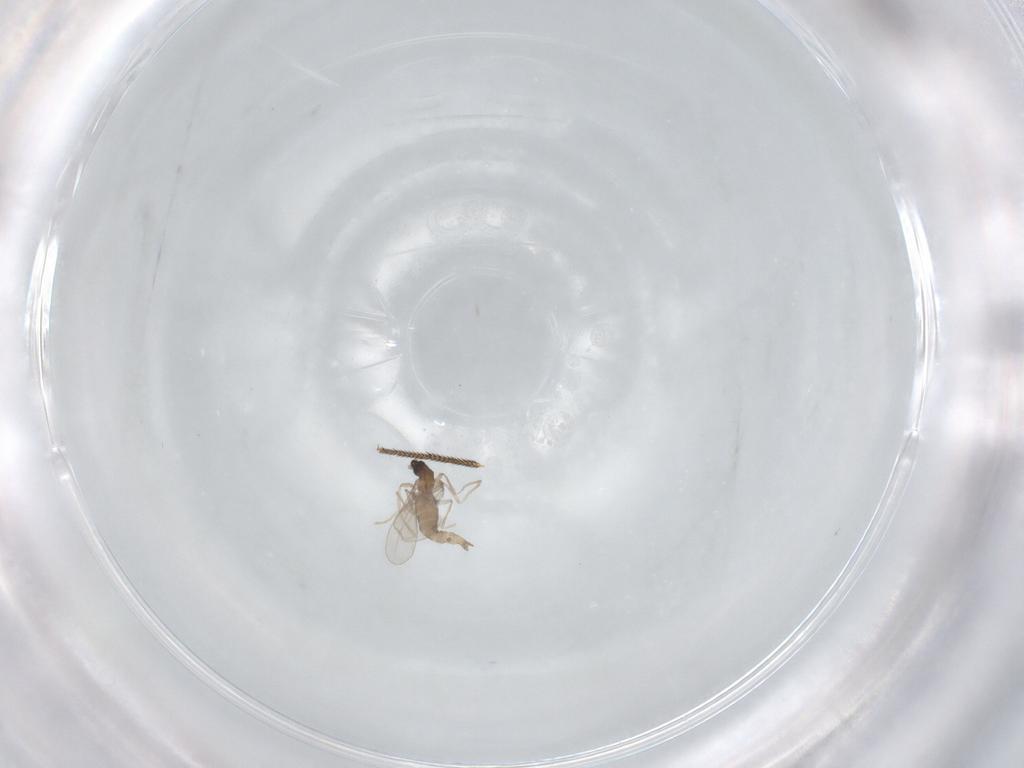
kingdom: Animalia
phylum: Arthropoda
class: Insecta
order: Diptera
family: Cecidomyiidae
